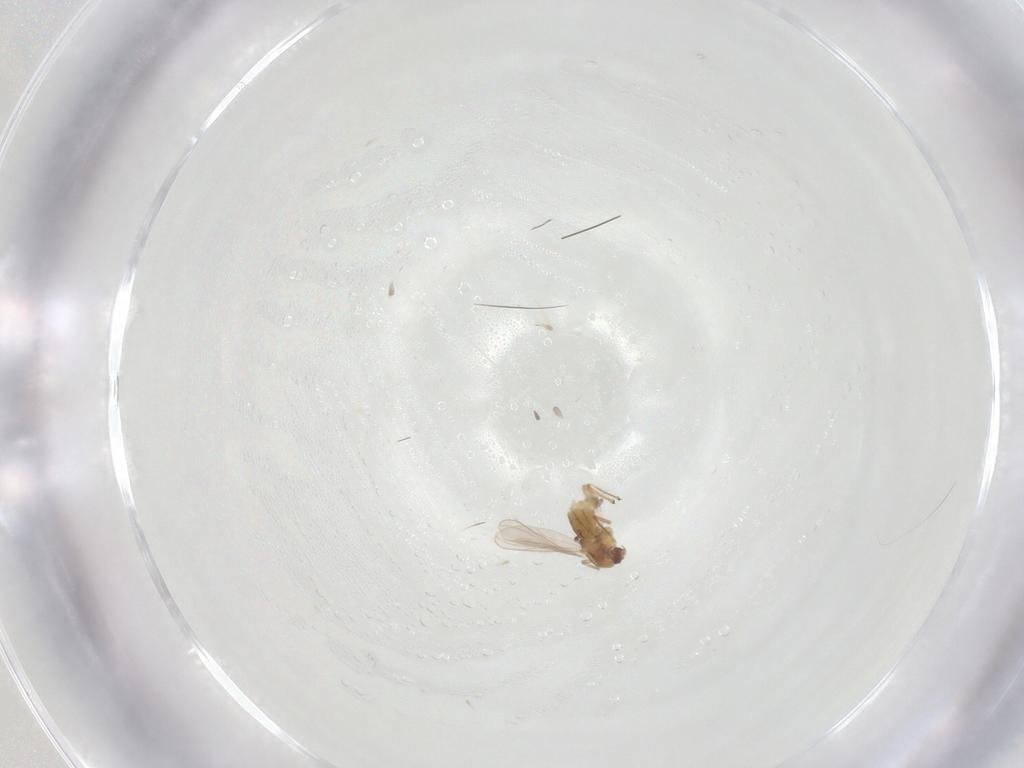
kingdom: Animalia
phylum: Arthropoda
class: Insecta
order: Diptera
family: Chironomidae
